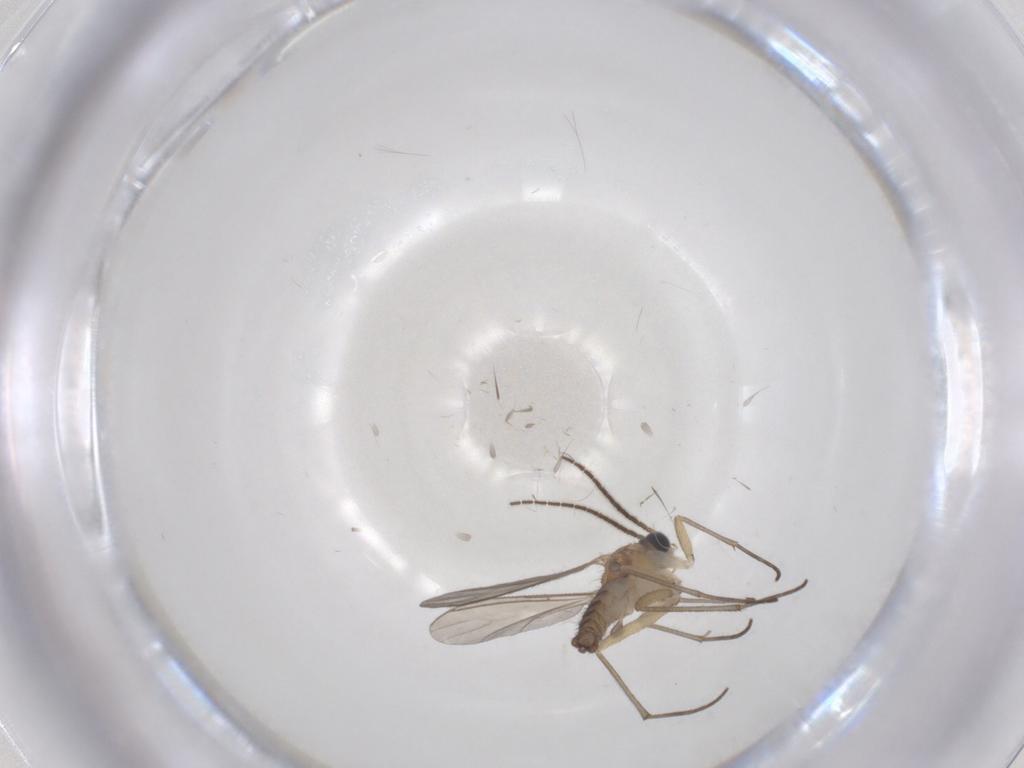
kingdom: Animalia
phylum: Arthropoda
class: Insecta
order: Diptera
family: Sciaridae
